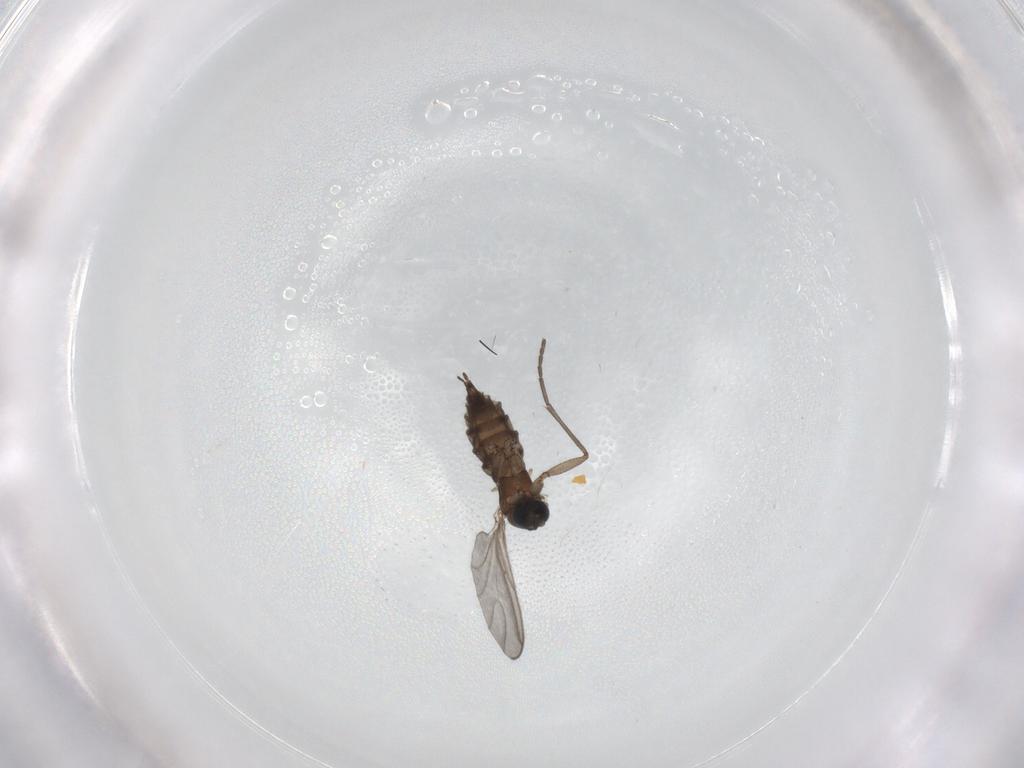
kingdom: Animalia
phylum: Arthropoda
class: Insecta
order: Diptera
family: Sciaridae
